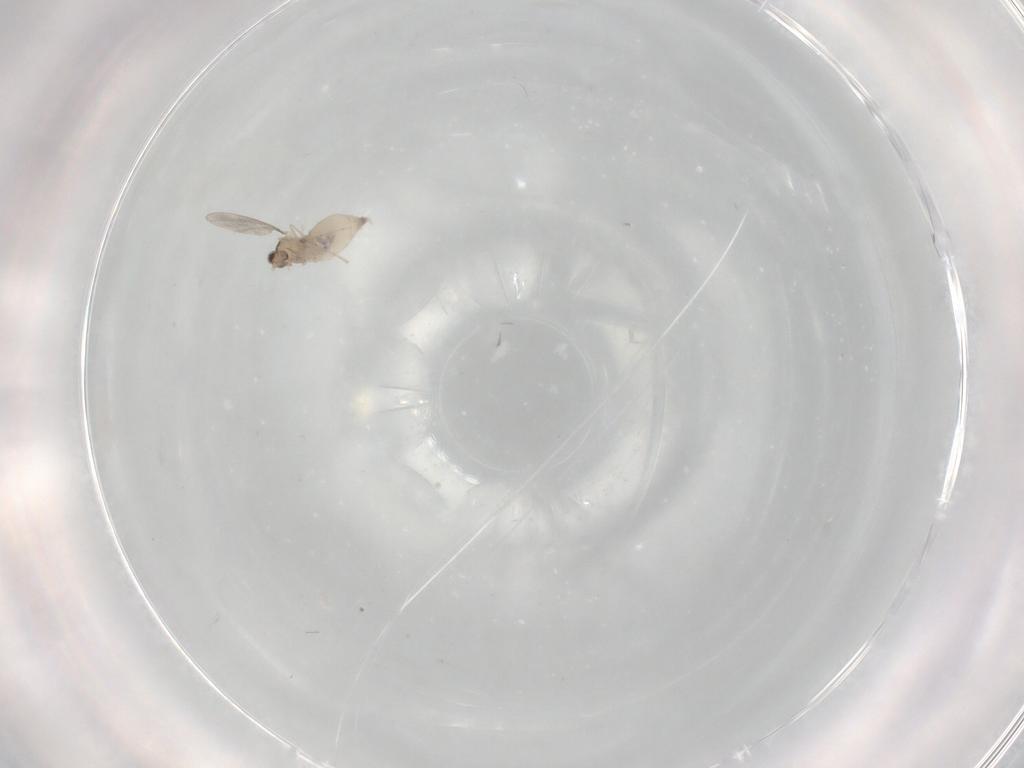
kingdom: Animalia
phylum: Arthropoda
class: Insecta
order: Diptera
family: Cecidomyiidae
